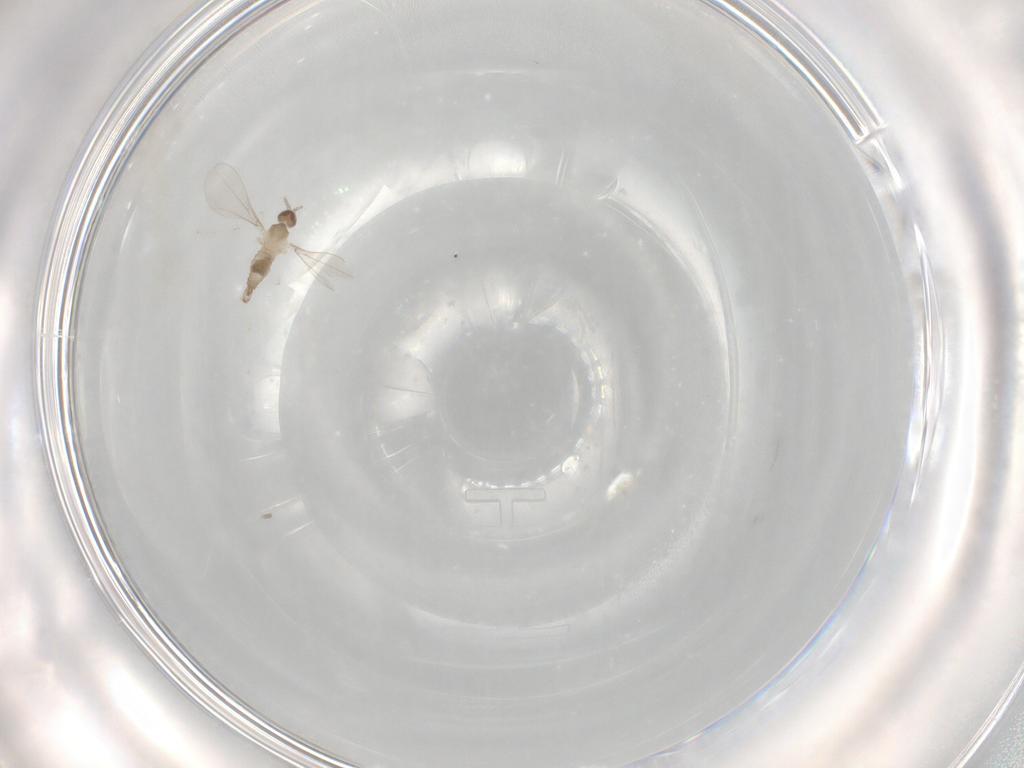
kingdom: Animalia
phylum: Arthropoda
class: Insecta
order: Diptera
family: Cecidomyiidae
